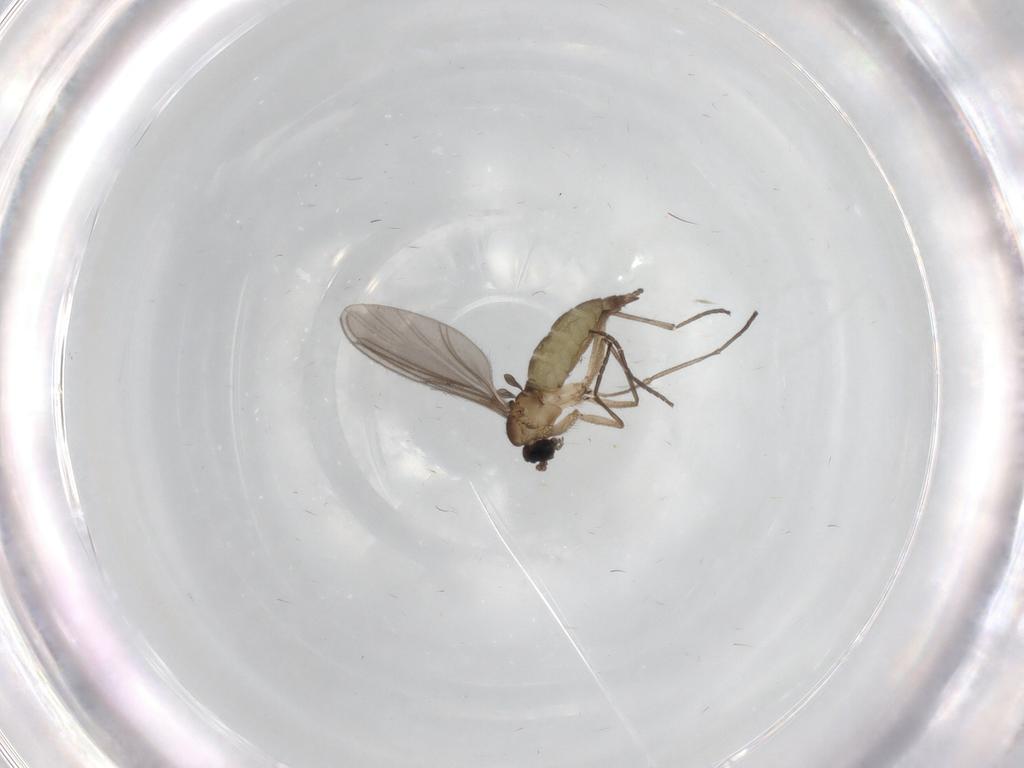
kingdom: Animalia
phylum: Arthropoda
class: Insecta
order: Diptera
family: Sciaridae
